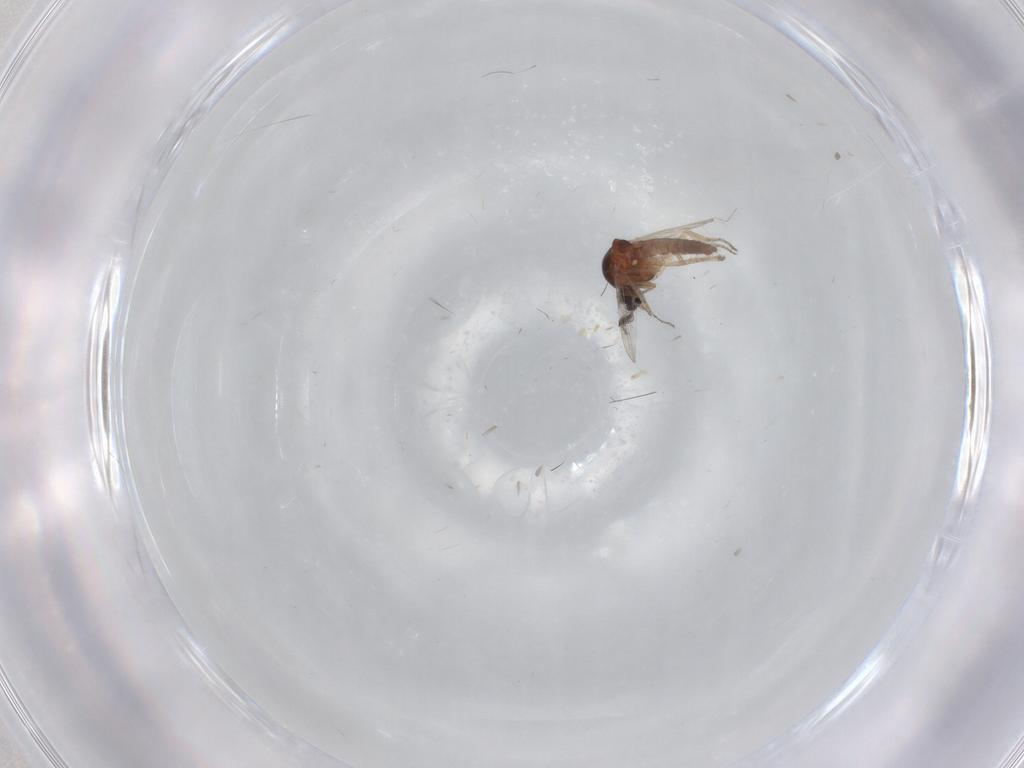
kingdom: Animalia
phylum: Arthropoda
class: Insecta
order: Diptera
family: Ceratopogonidae
